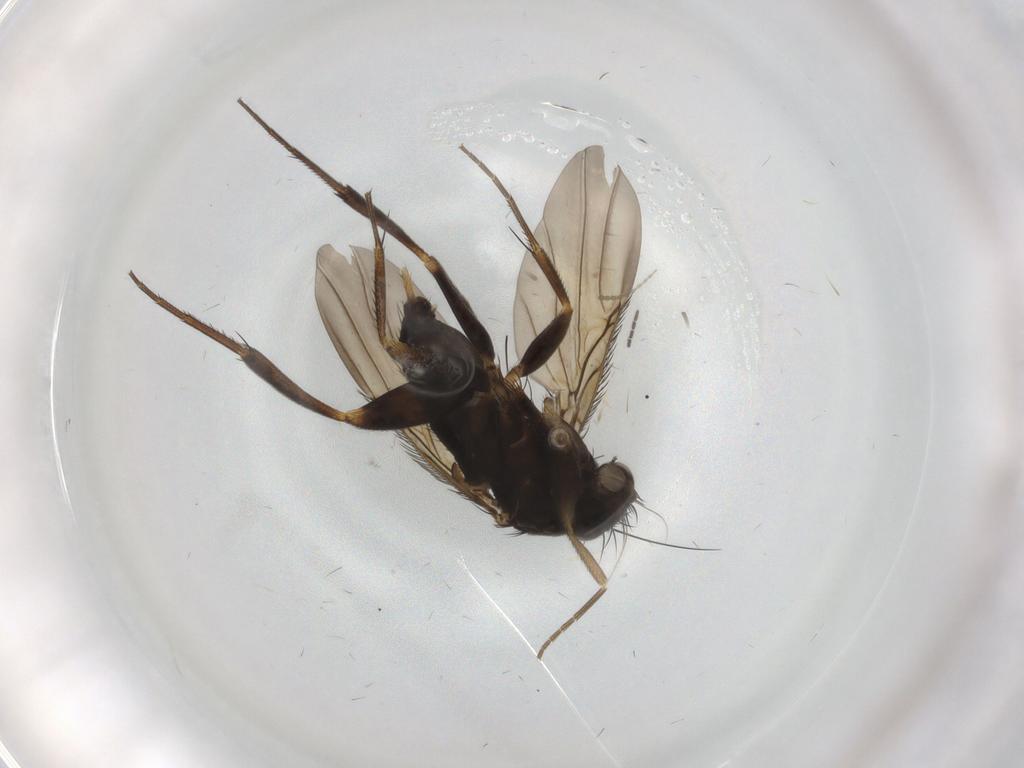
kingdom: Animalia
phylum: Arthropoda
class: Insecta
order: Diptera
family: Phoridae
